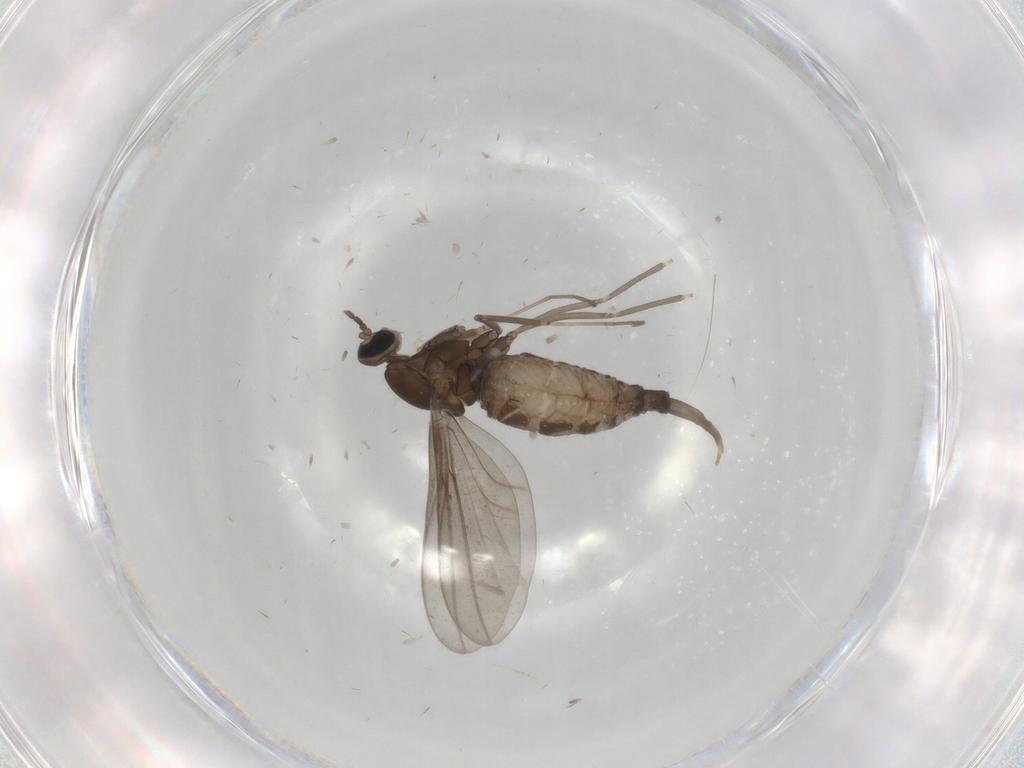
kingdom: Animalia
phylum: Arthropoda
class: Insecta
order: Diptera
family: Cecidomyiidae
